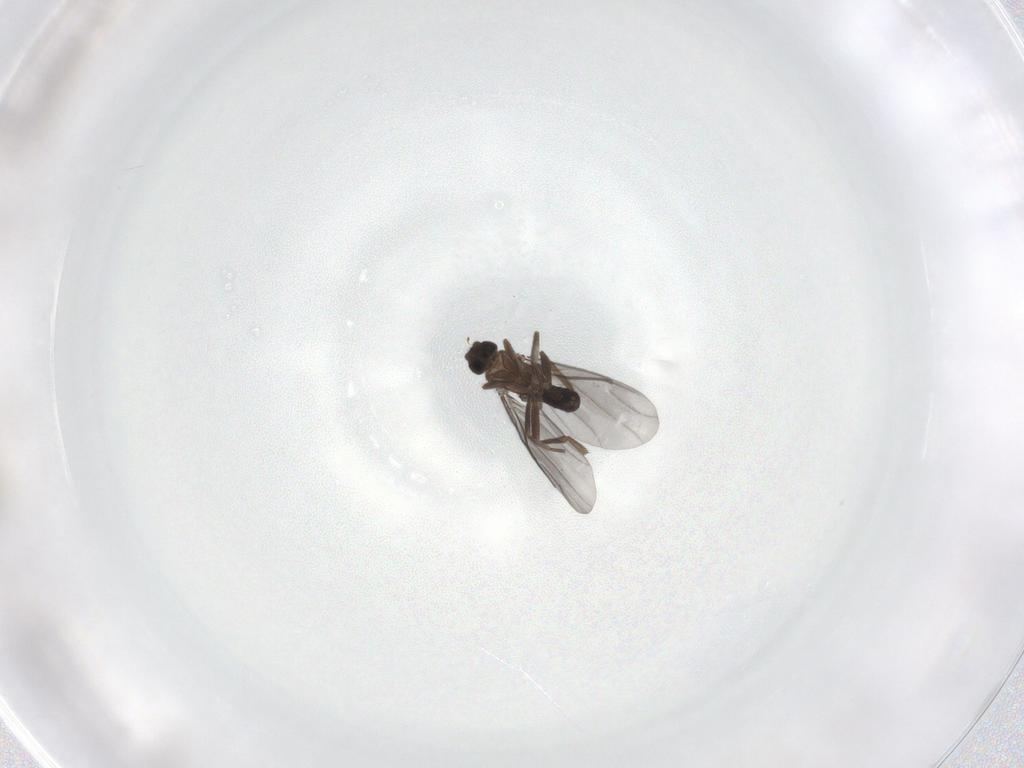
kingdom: Animalia
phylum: Arthropoda
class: Insecta
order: Diptera
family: Phoridae
